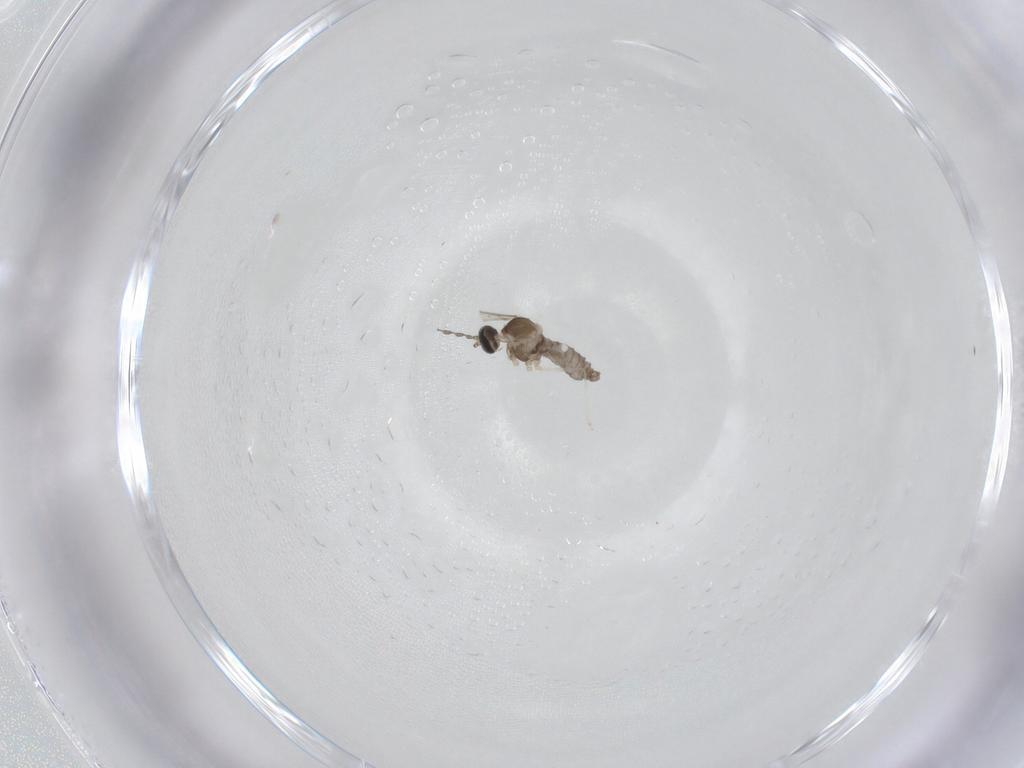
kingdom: Animalia
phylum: Arthropoda
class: Insecta
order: Diptera
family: Cecidomyiidae
